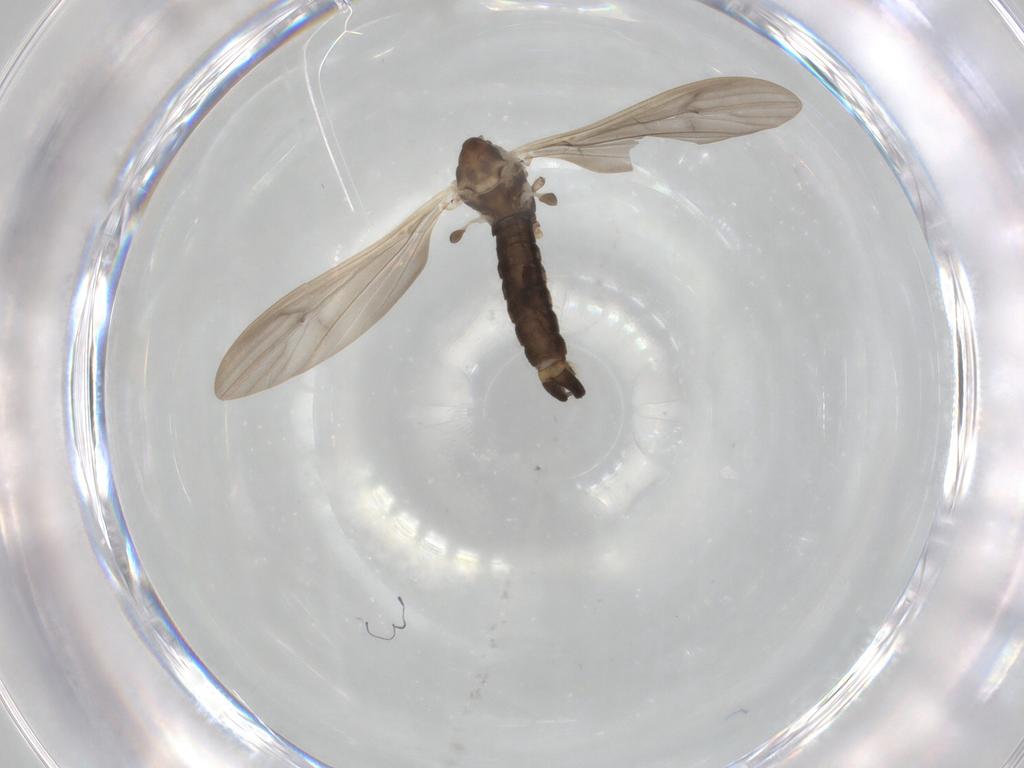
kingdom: Animalia
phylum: Arthropoda
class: Insecta
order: Diptera
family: Limoniidae
